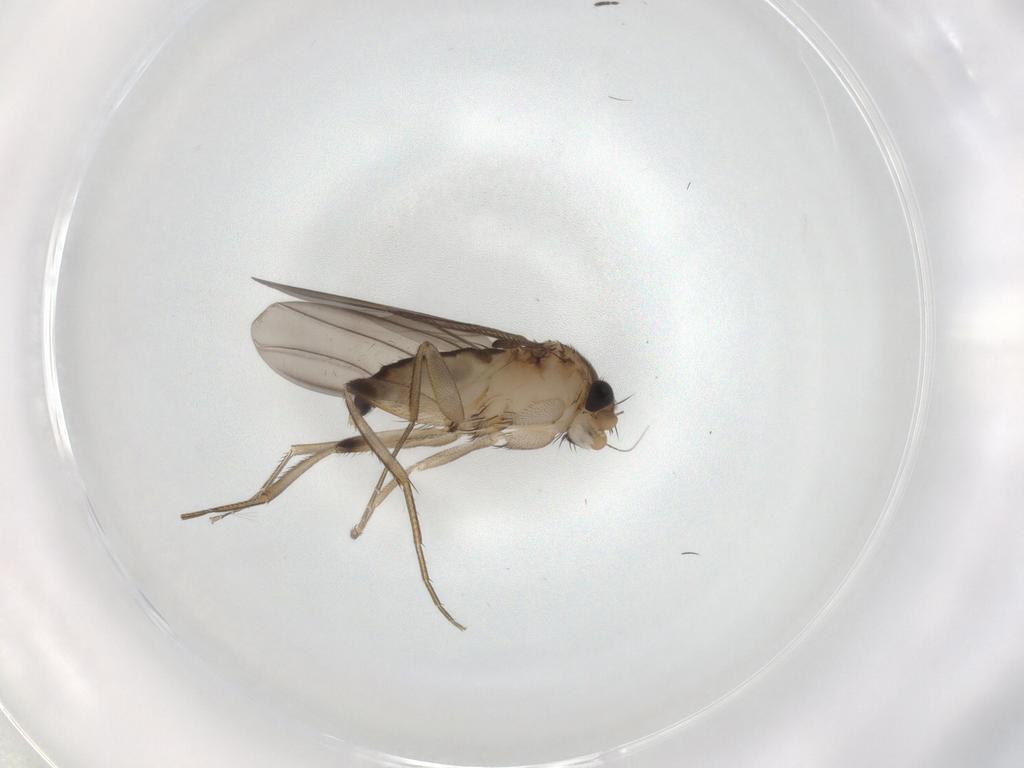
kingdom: Animalia
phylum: Arthropoda
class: Insecta
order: Diptera
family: Phoridae
